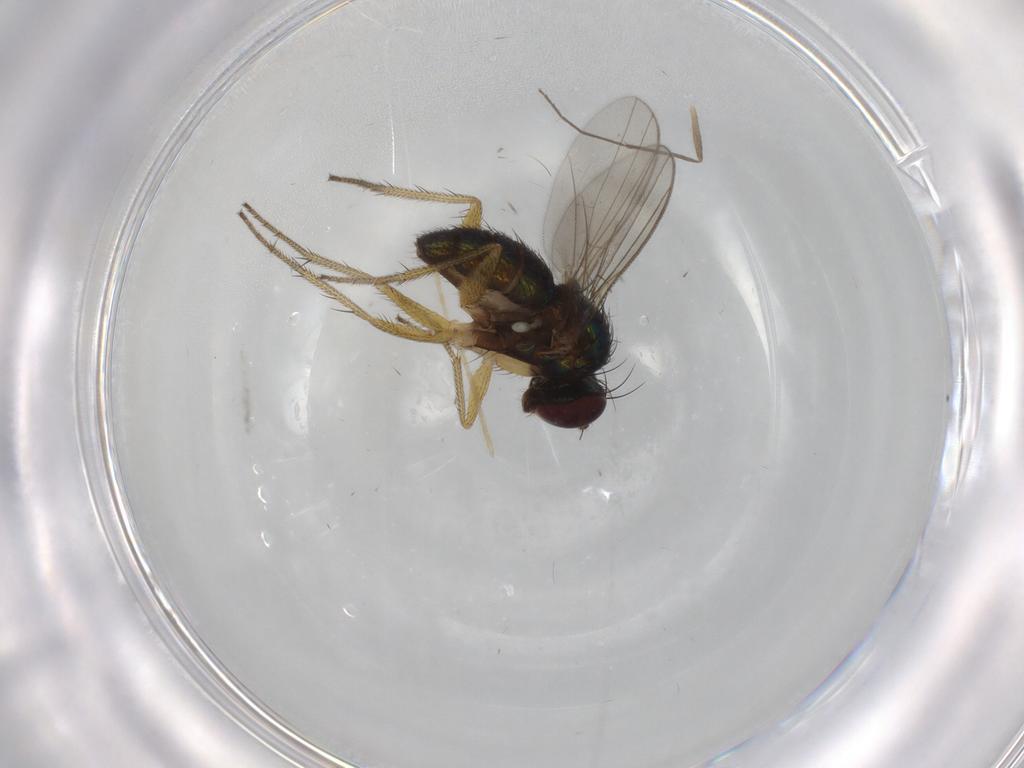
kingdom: Animalia
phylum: Arthropoda
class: Insecta
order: Diptera
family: Chironomidae
